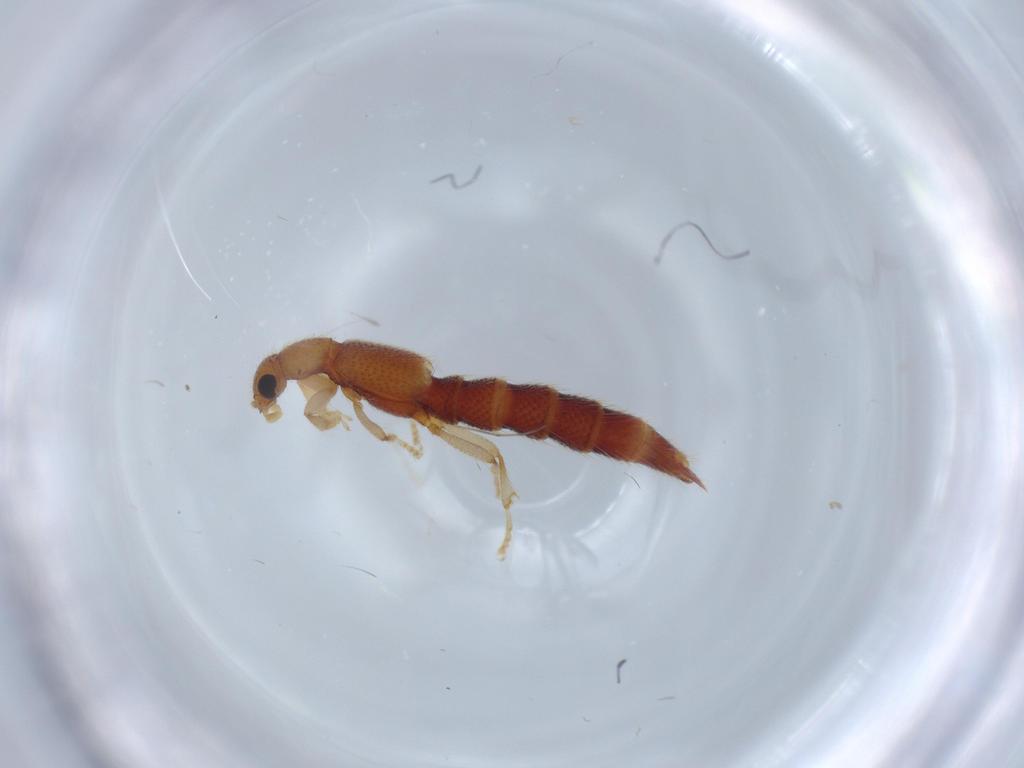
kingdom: Animalia
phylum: Arthropoda
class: Insecta
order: Coleoptera
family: Staphylinidae
